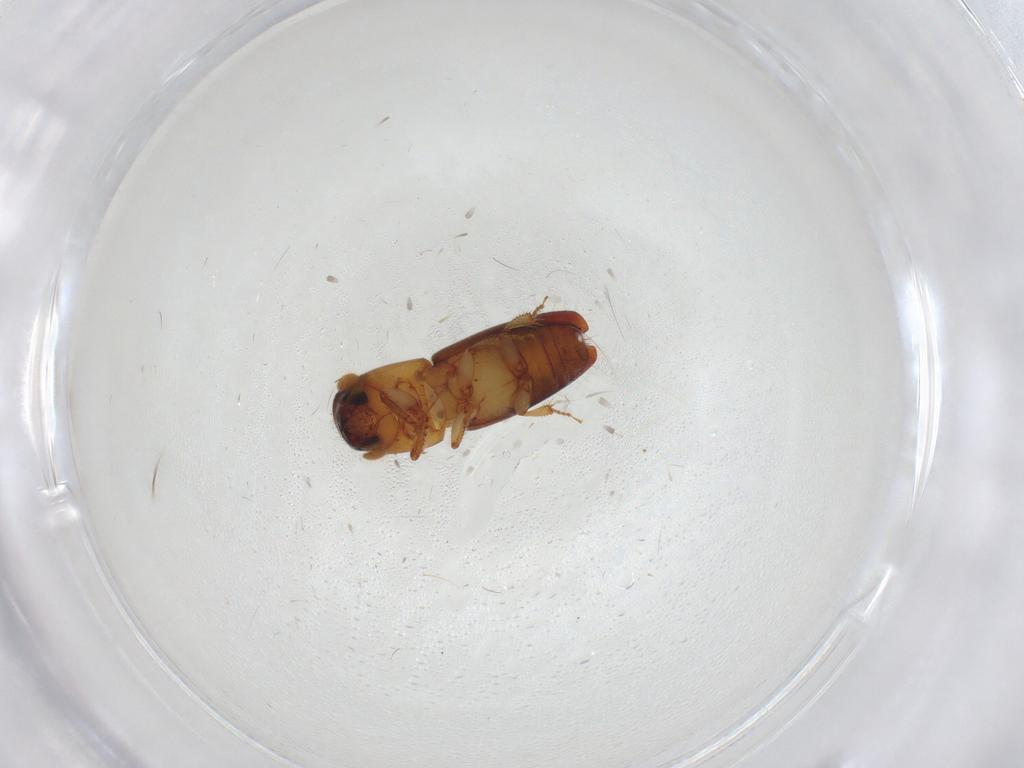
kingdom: Animalia
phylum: Arthropoda
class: Insecta
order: Coleoptera
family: Curculionidae
